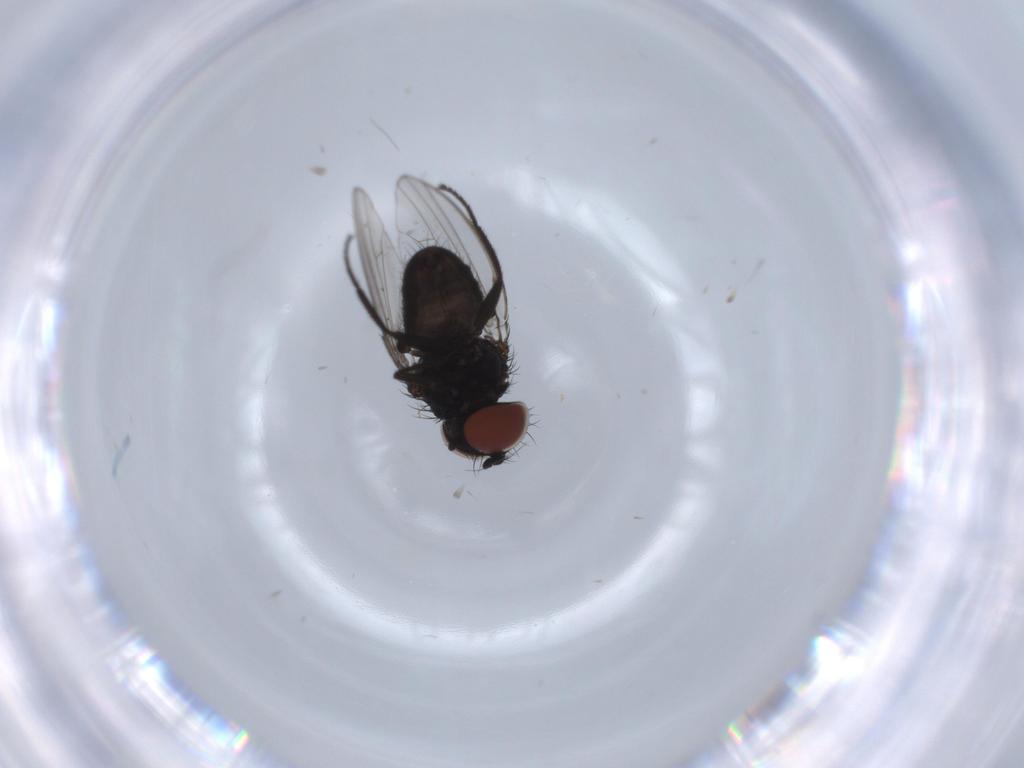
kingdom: Animalia
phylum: Arthropoda
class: Insecta
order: Diptera
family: Milichiidae
